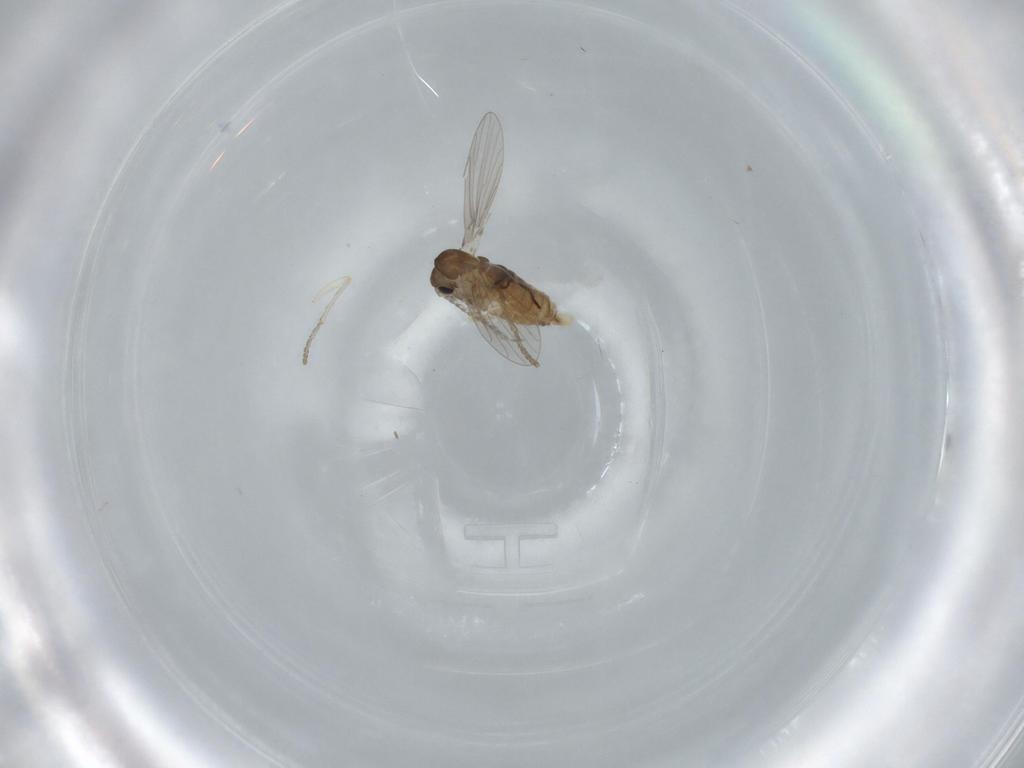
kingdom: Animalia
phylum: Arthropoda
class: Insecta
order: Diptera
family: Psychodidae
